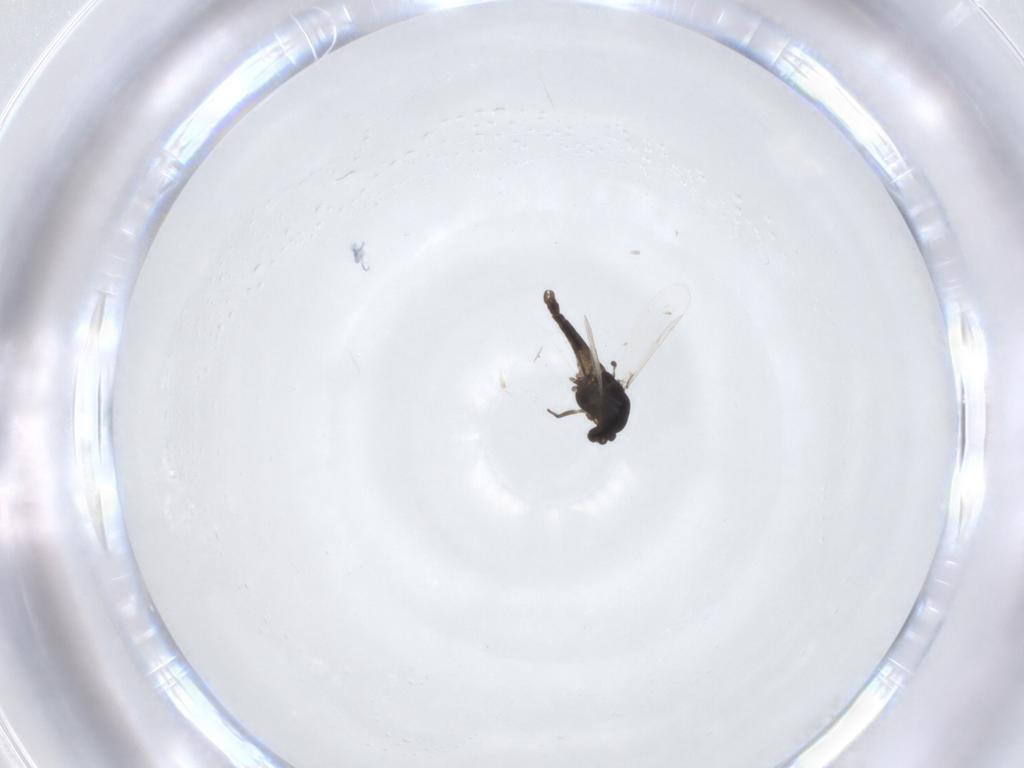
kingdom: Animalia
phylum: Arthropoda
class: Insecta
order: Diptera
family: Chironomidae
